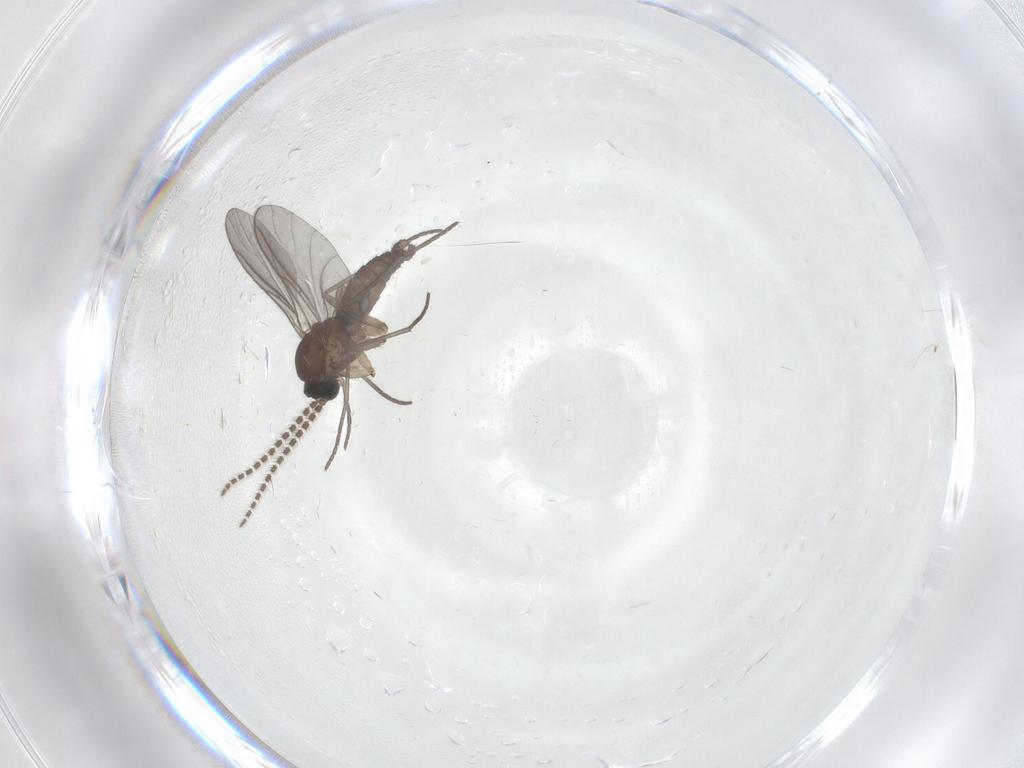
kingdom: Animalia
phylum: Arthropoda
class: Insecta
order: Diptera
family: Sciaridae
